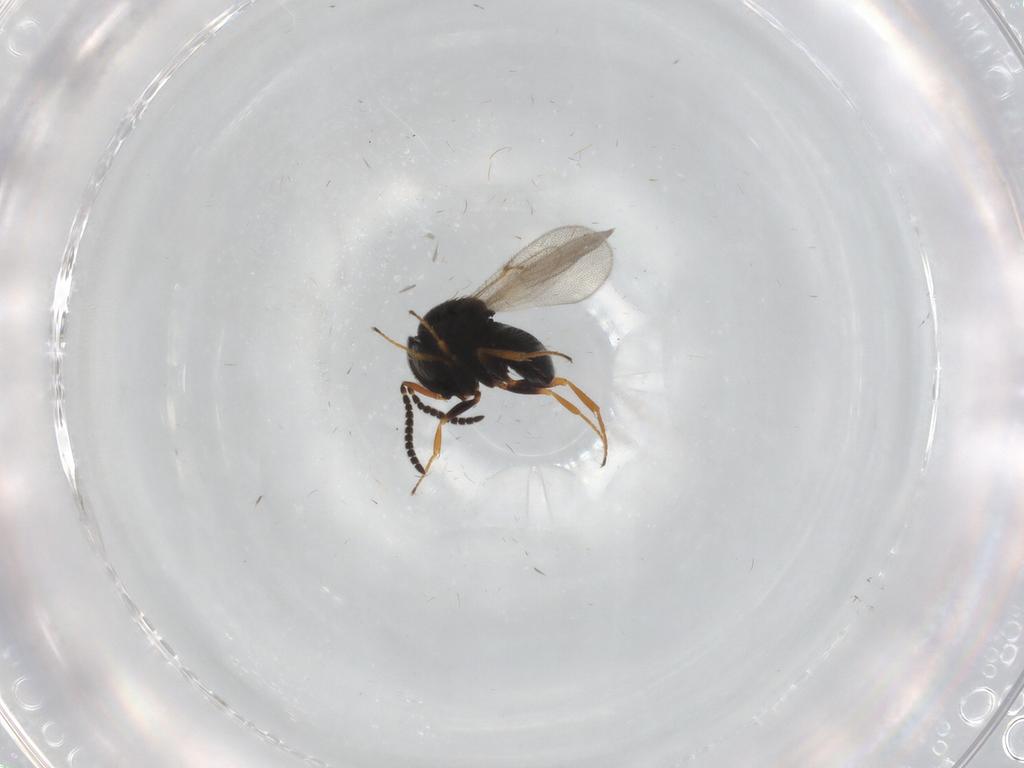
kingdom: Animalia
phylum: Arthropoda
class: Insecta
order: Hymenoptera
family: Scelionidae
